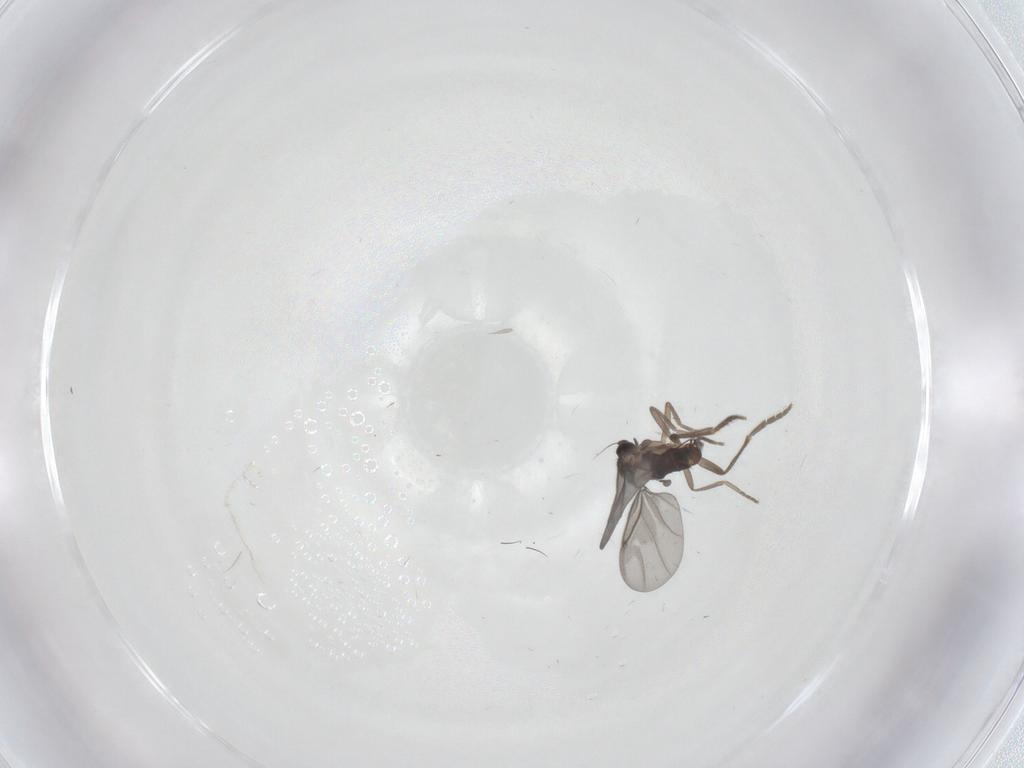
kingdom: Animalia
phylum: Arthropoda
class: Insecta
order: Diptera
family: Phoridae
